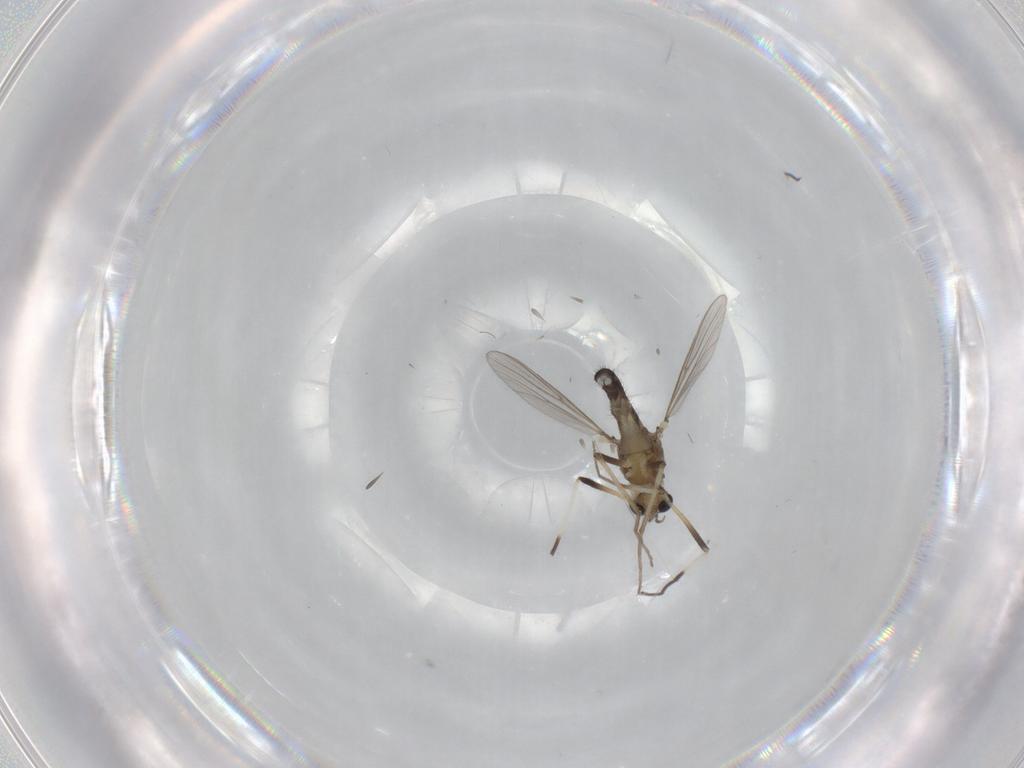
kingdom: Animalia
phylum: Arthropoda
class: Insecta
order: Diptera
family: Chironomidae
